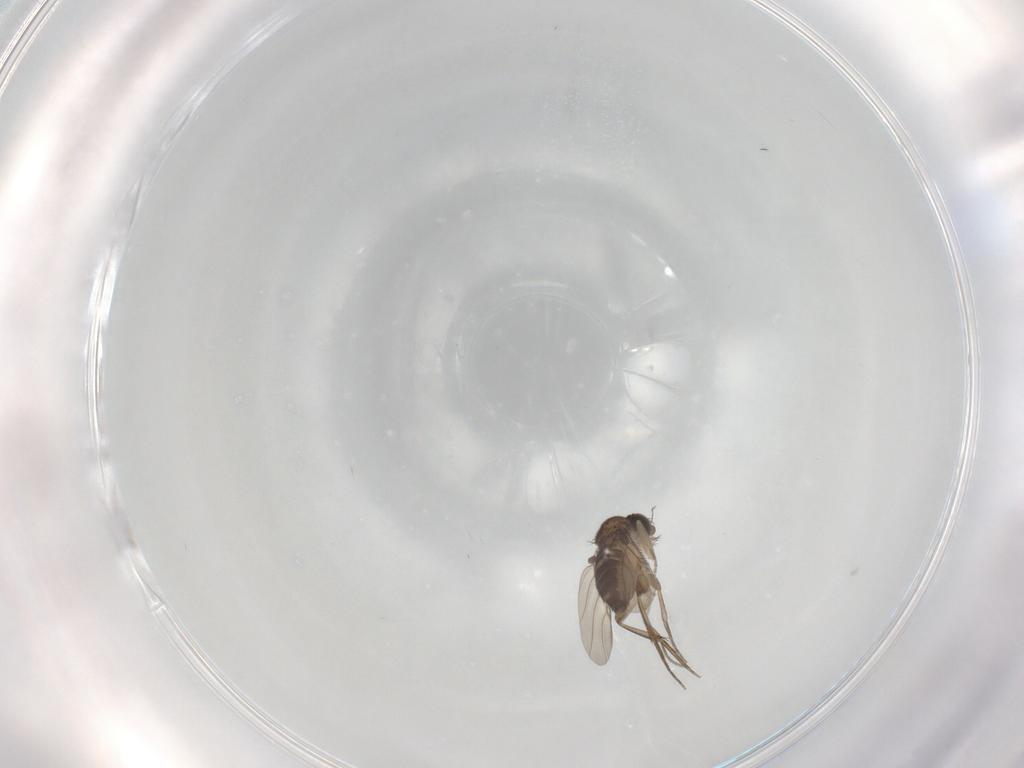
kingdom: Animalia
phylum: Arthropoda
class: Insecta
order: Diptera
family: Phoridae
